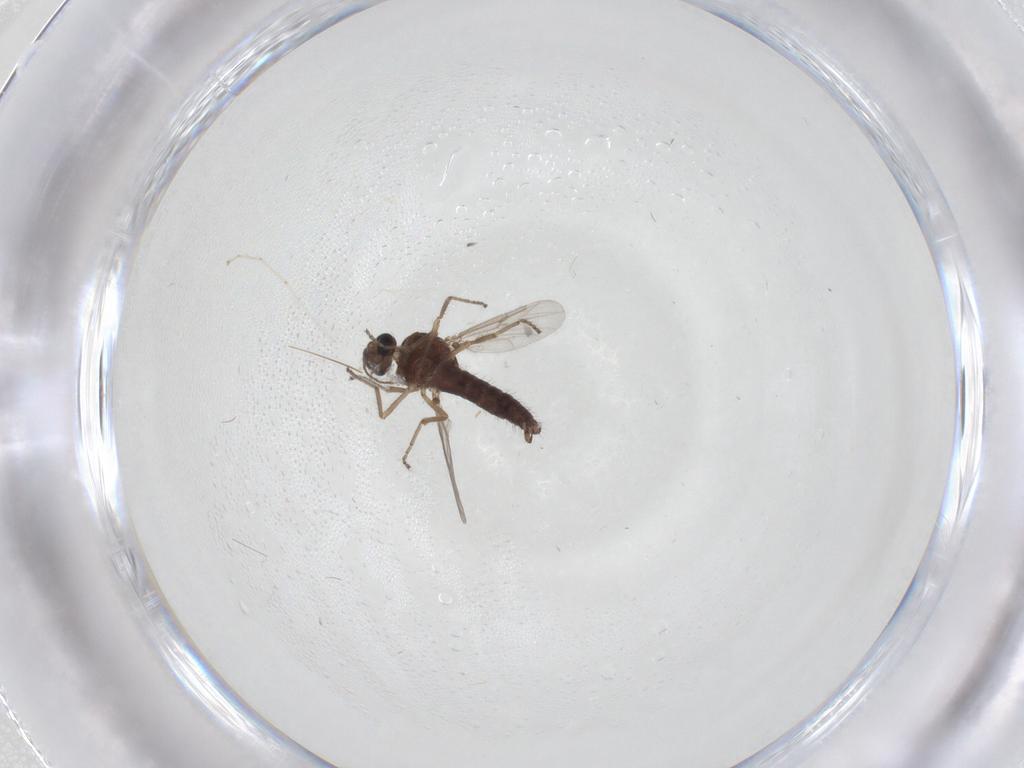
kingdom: Animalia
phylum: Arthropoda
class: Insecta
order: Diptera
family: Ceratopogonidae
